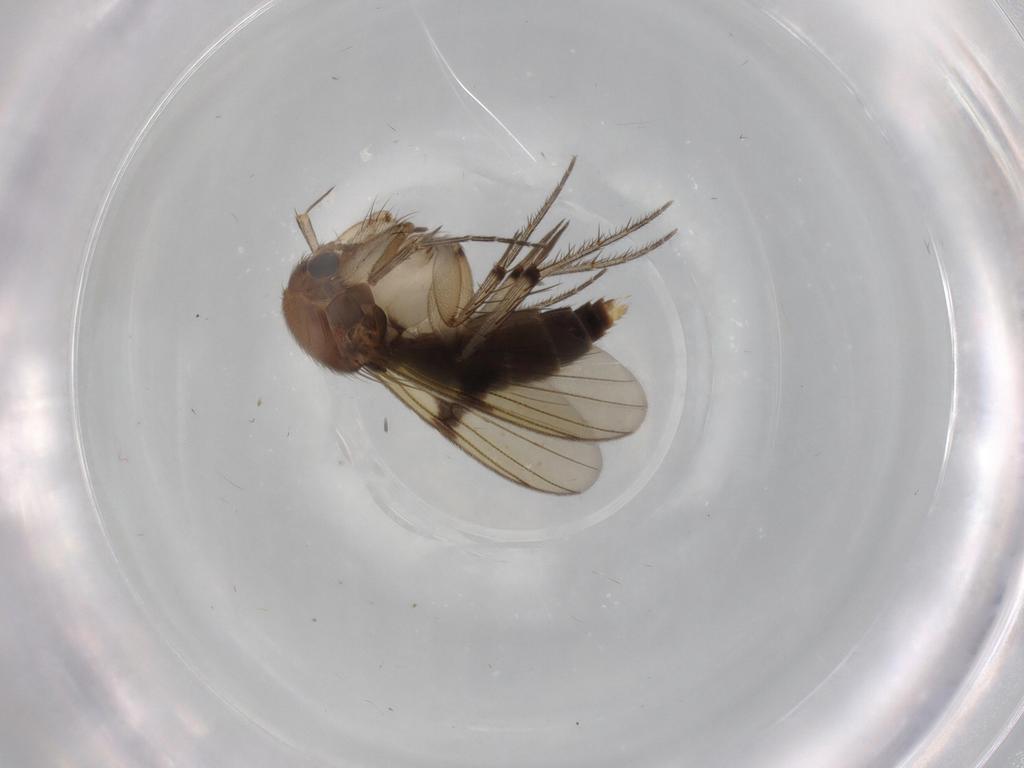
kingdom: Animalia
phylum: Arthropoda
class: Insecta
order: Diptera
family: Mycetophilidae
